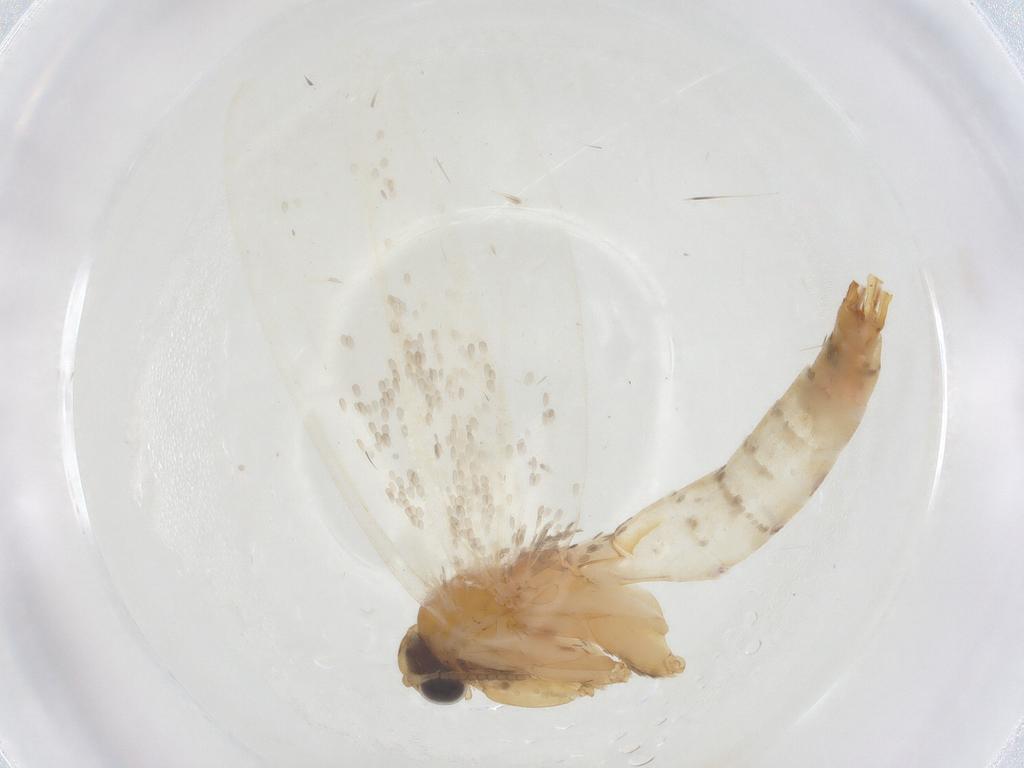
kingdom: Animalia
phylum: Arthropoda
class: Insecta
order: Lepidoptera
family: Tineidae
